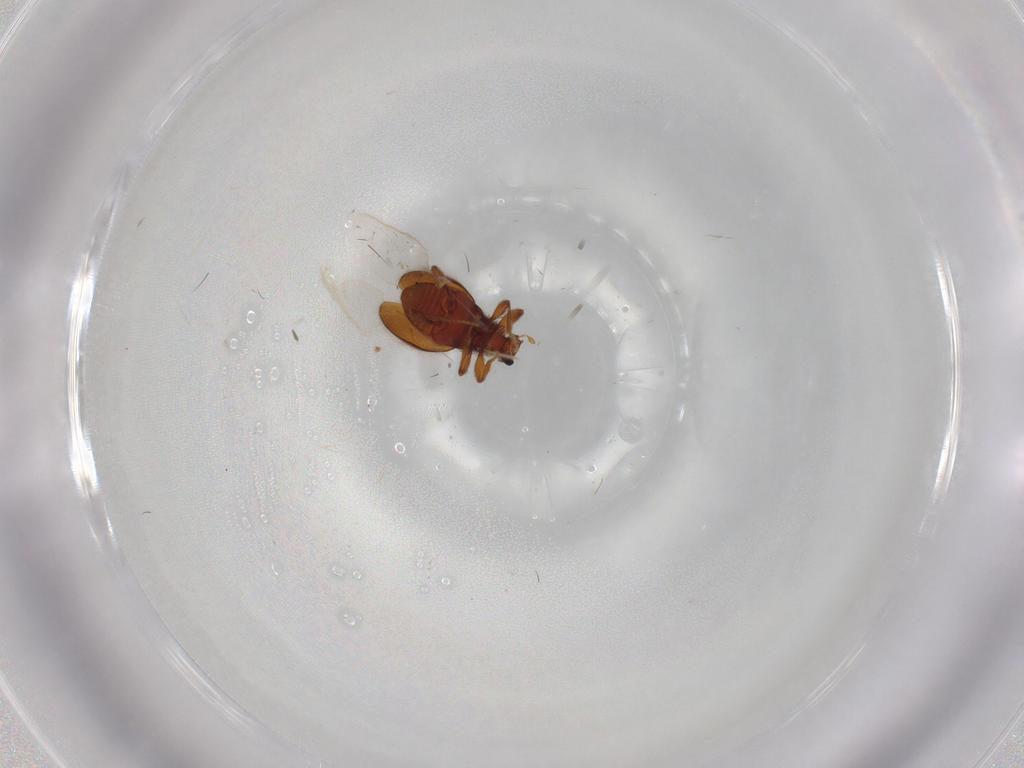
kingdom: Animalia
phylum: Arthropoda
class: Insecta
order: Coleoptera
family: Staphylinidae
